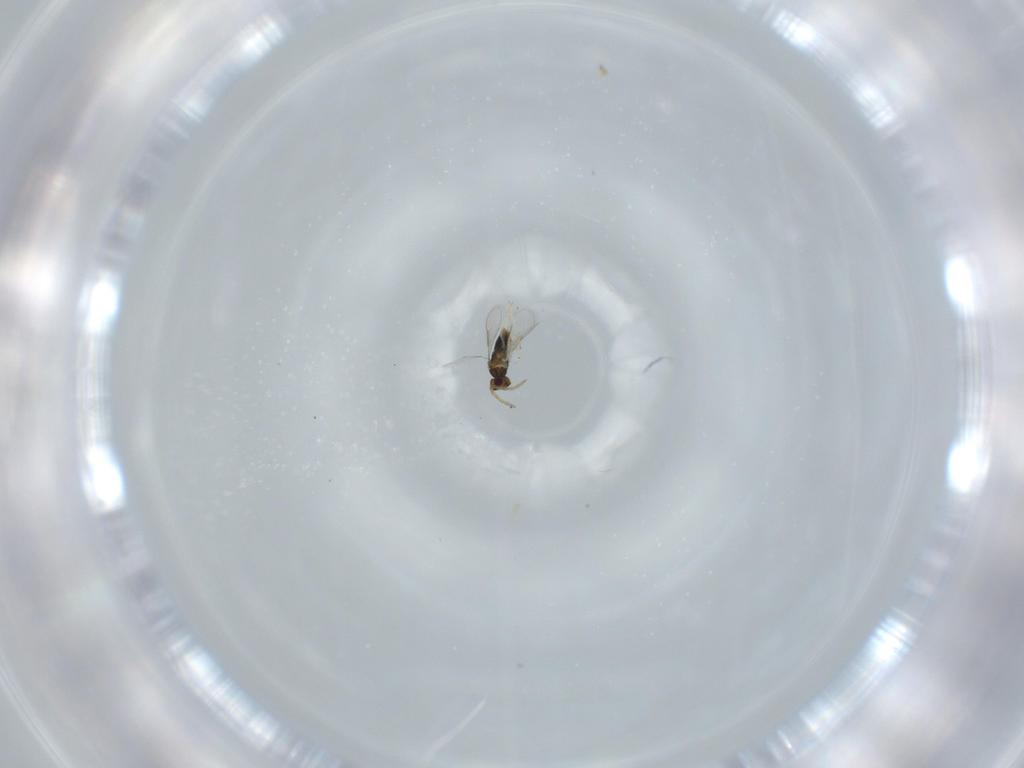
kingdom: Animalia
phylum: Arthropoda
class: Insecta
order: Hymenoptera
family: Aphelinidae
